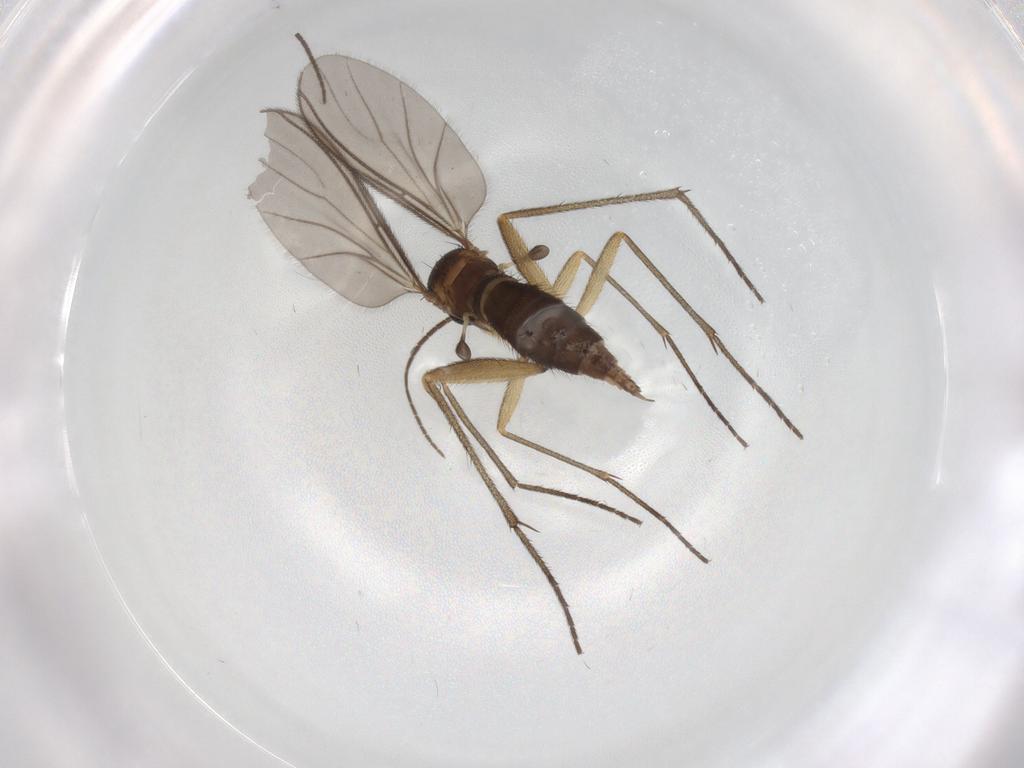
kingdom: Animalia
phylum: Arthropoda
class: Insecta
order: Diptera
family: Sciaridae
